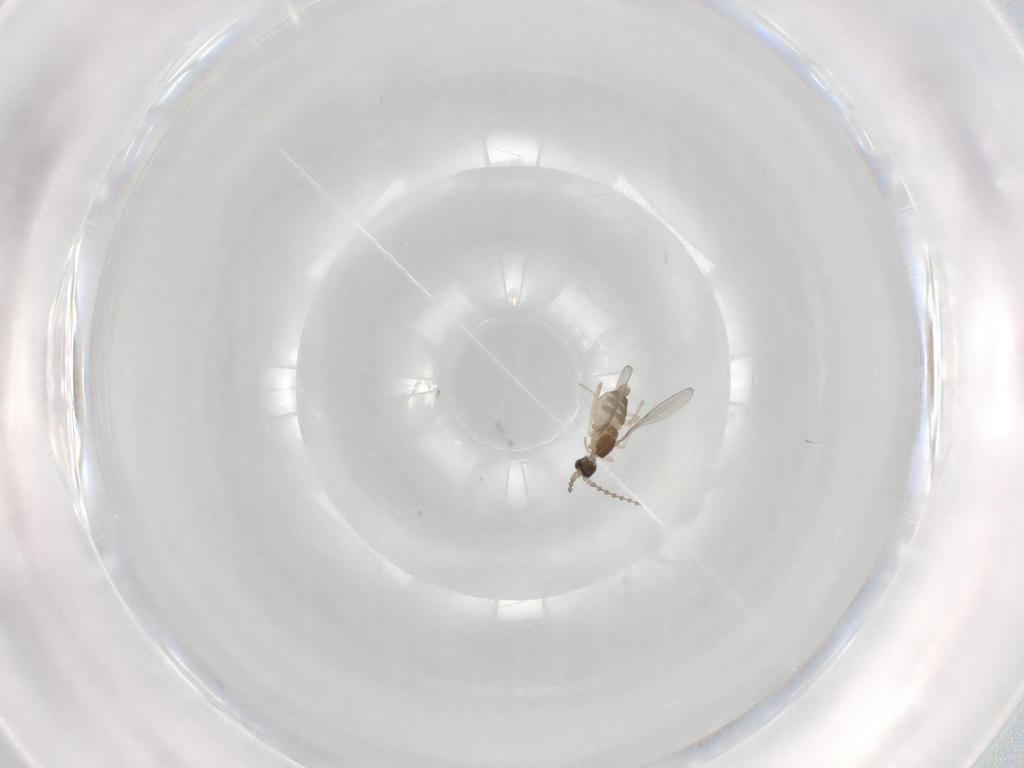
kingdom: Animalia
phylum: Arthropoda
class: Insecta
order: Diptera
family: Cecidomyiidae
